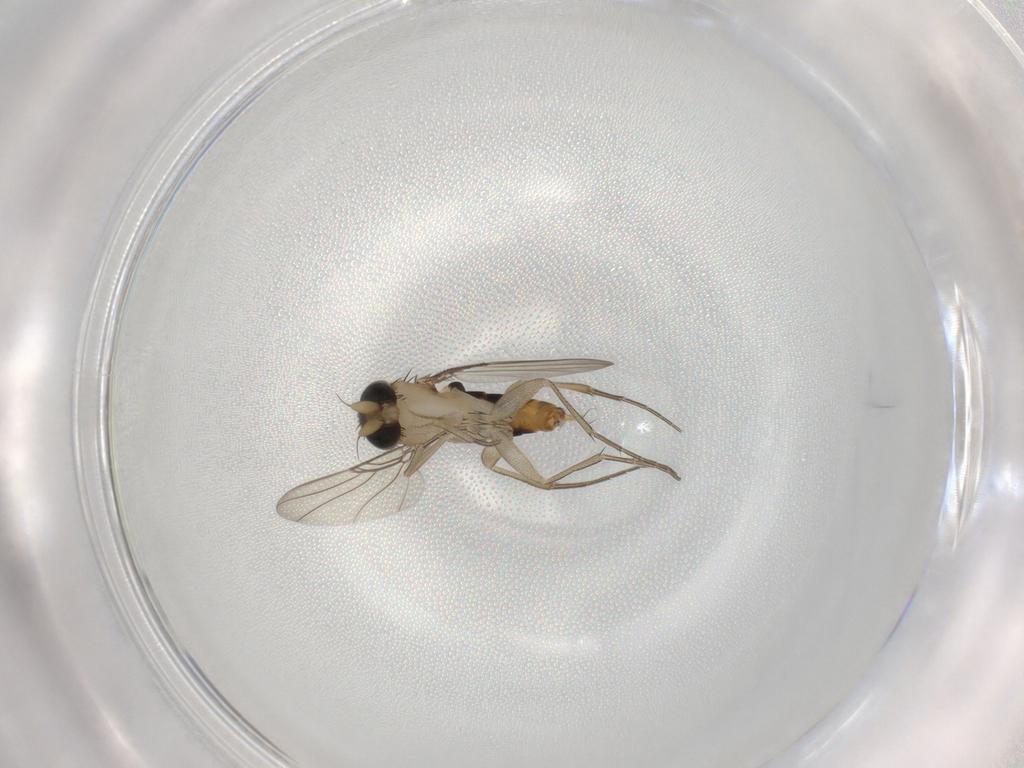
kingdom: Animalia
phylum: Arthropoda
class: Insecta
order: Diptera
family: Phoridae
